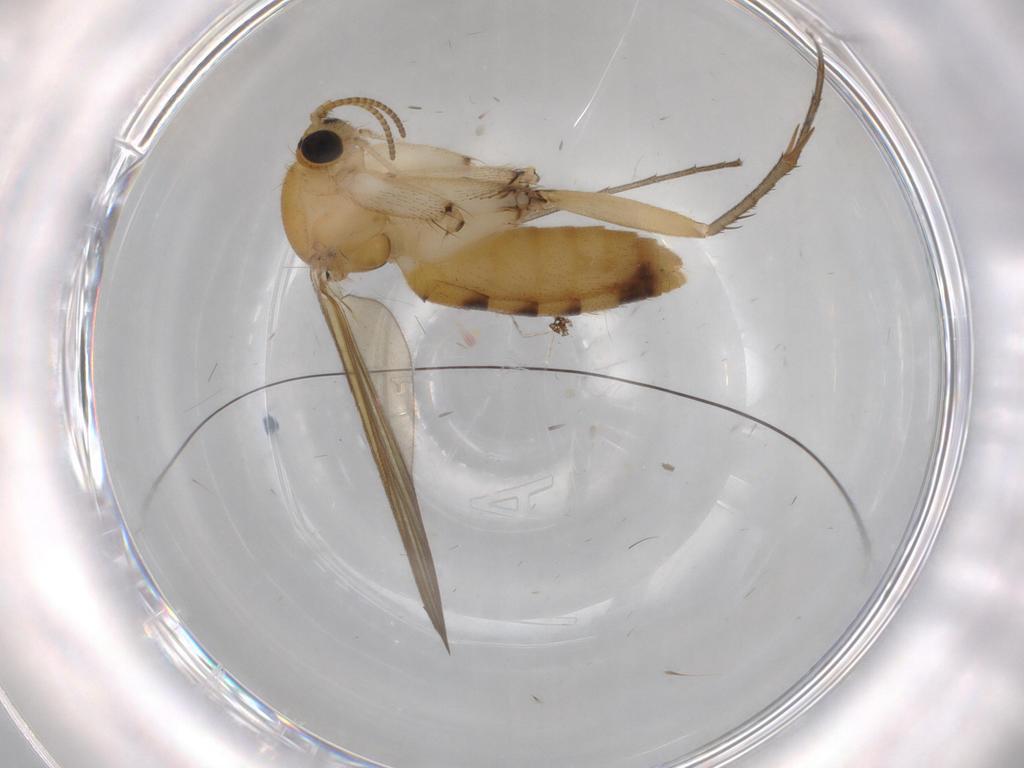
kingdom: Animalia
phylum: Arthropoda
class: Insecta
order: Diptera
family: Mycetophilidae
